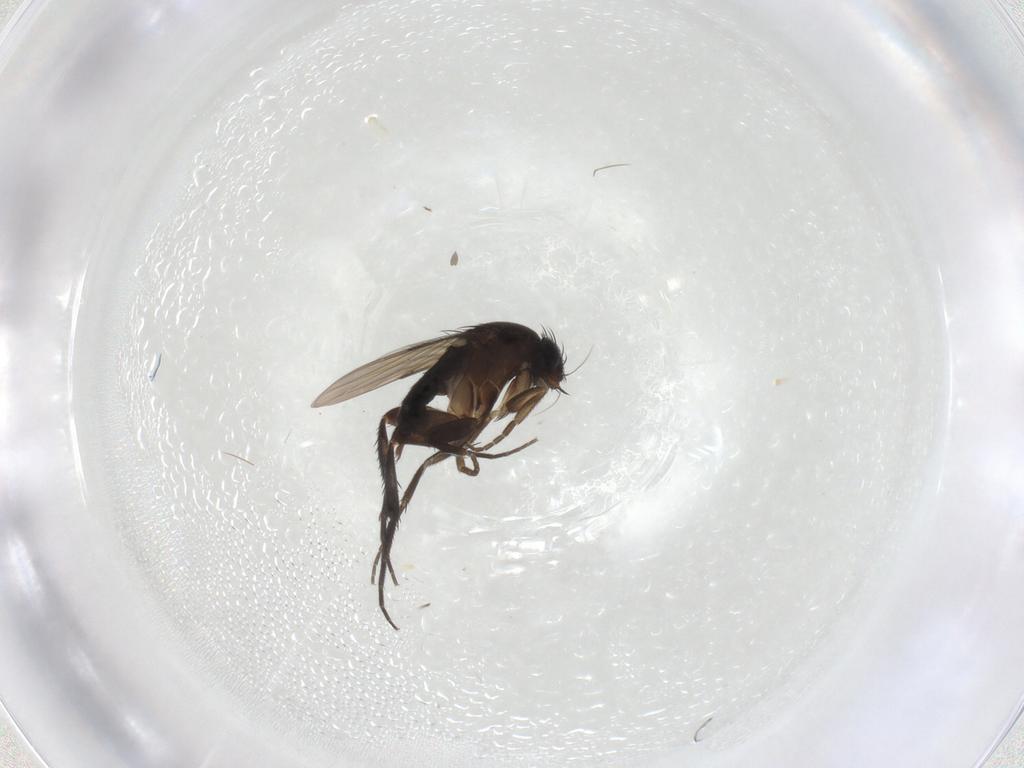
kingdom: Animalia
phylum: Arthropoda
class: Insecta
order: Diptera
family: Phoridae
